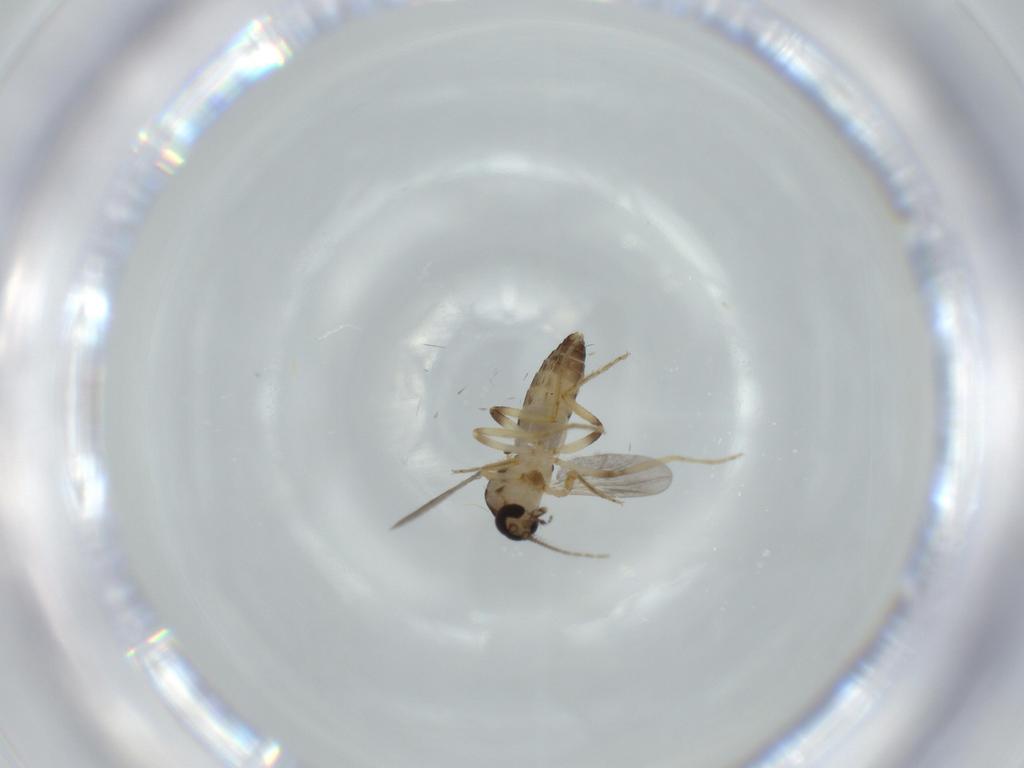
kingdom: Animalia
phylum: Arthropoda
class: Insecta
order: Diptera
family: Ceratopogonidae
